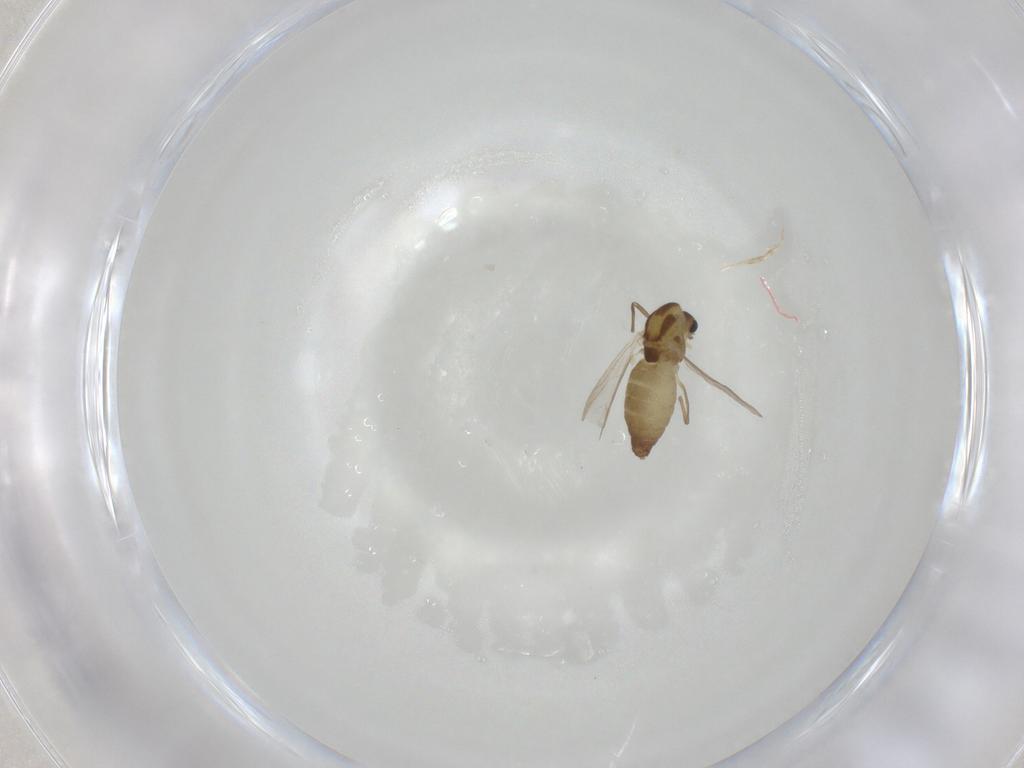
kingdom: Animalia
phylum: Arthropoda
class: Insecta
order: Diptera
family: Chironomidae
